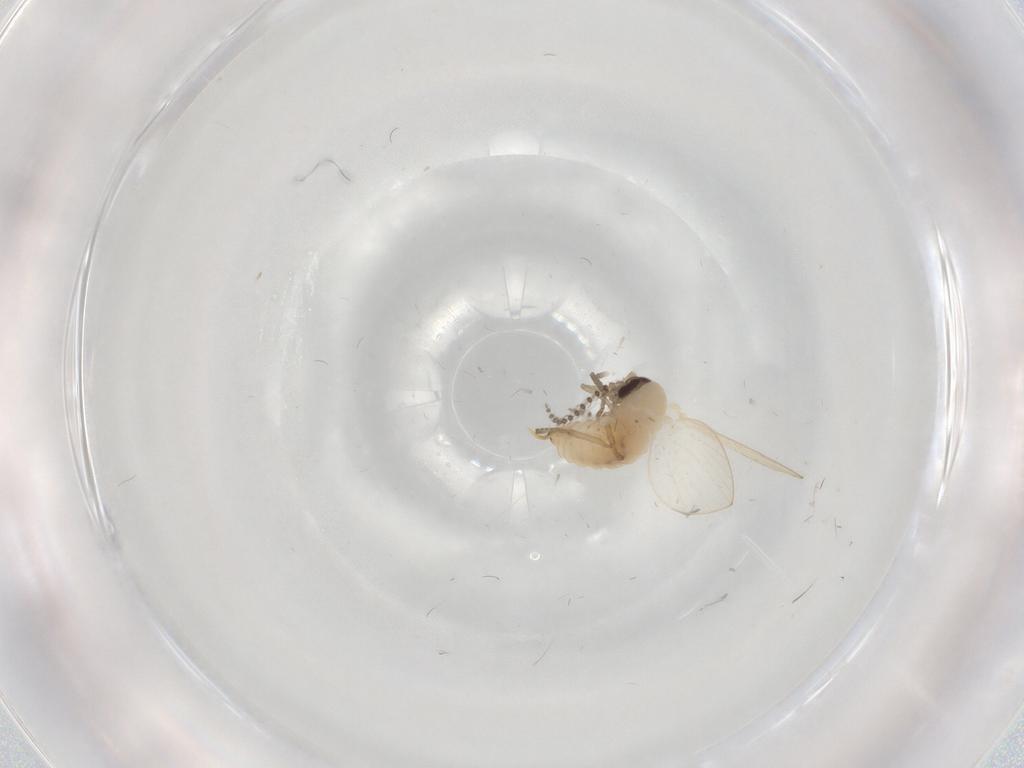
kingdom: Animalia
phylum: Arthropoda
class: Insecta
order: Diptera
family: Psychodidae
